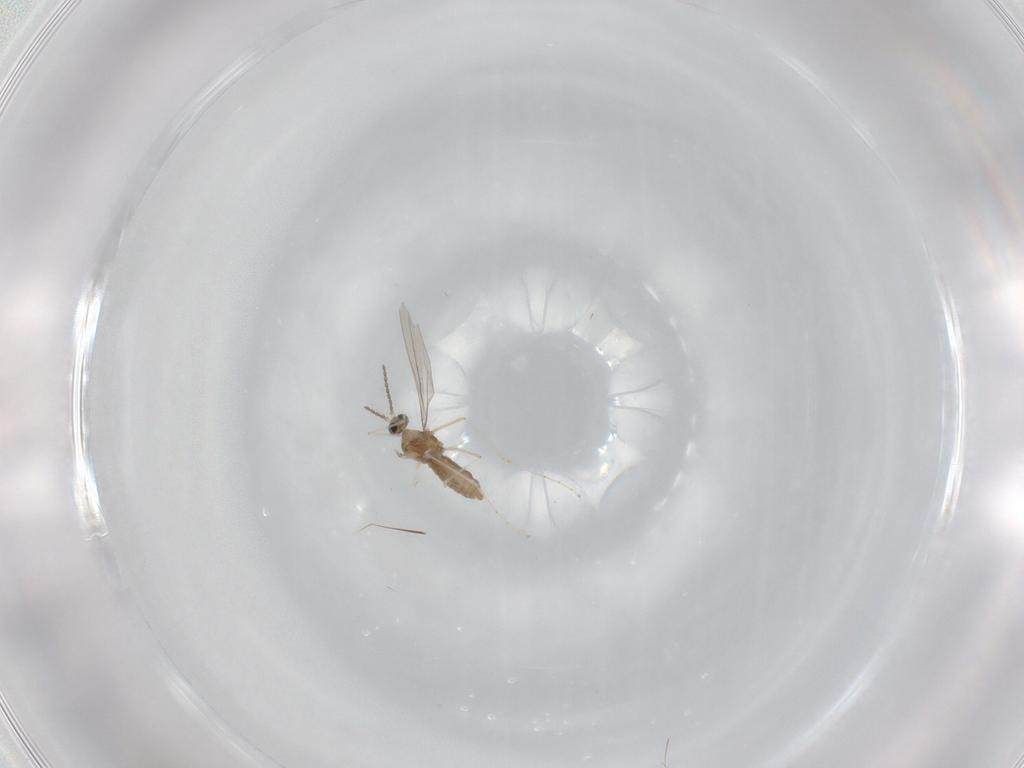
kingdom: Animalia
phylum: Arthropoda
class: Insecta
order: Diptera
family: Cecidomyiidae
